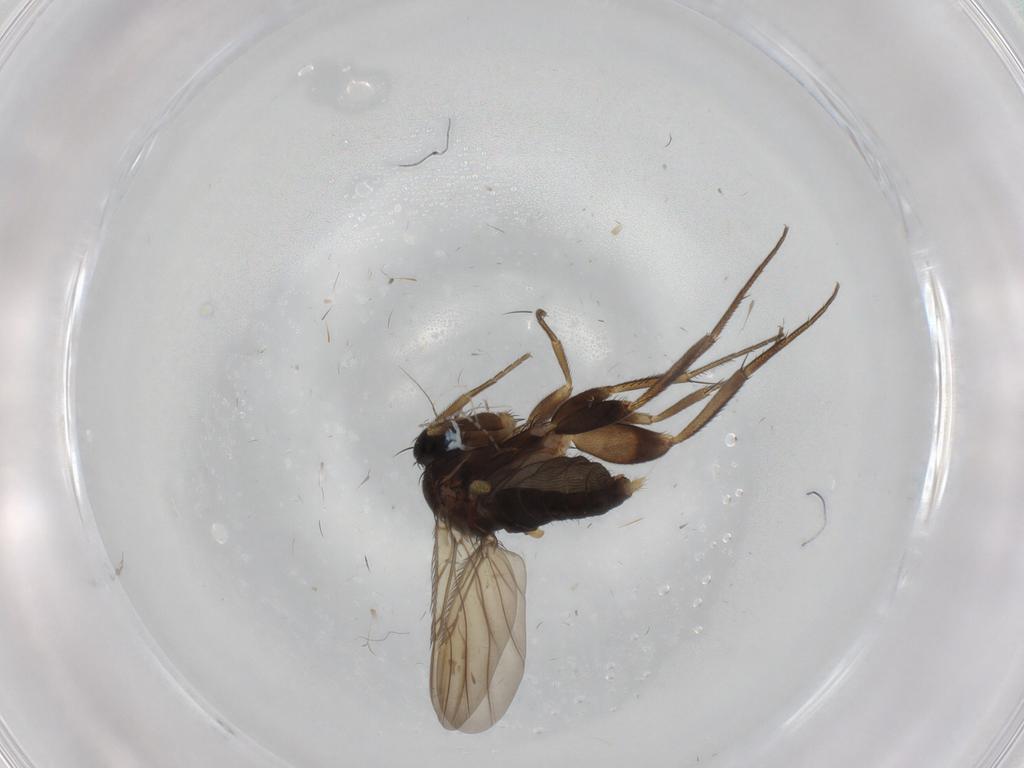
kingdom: Animalia
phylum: Arthropoda
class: Insecta
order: Diptera
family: Phoridae
